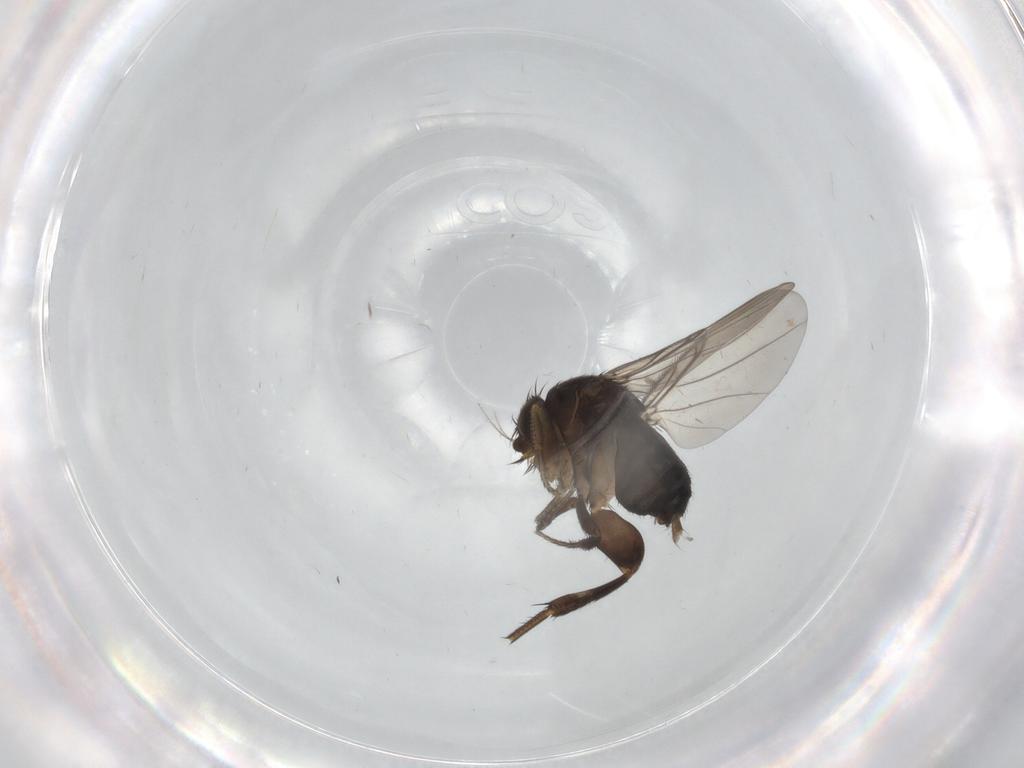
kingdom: Animalia
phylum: Arthropoda
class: Insecta
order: Diptera
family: Phoridae
